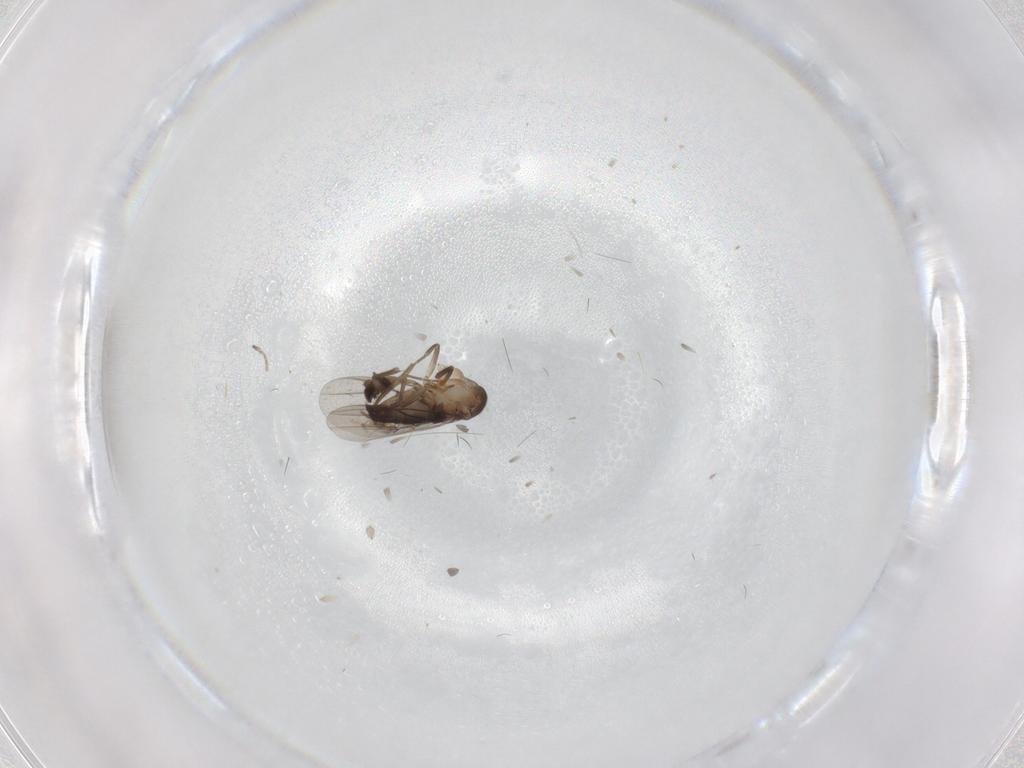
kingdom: Animalia
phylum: Arthropoda
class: Insecta
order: Diptera
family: Phoridae
